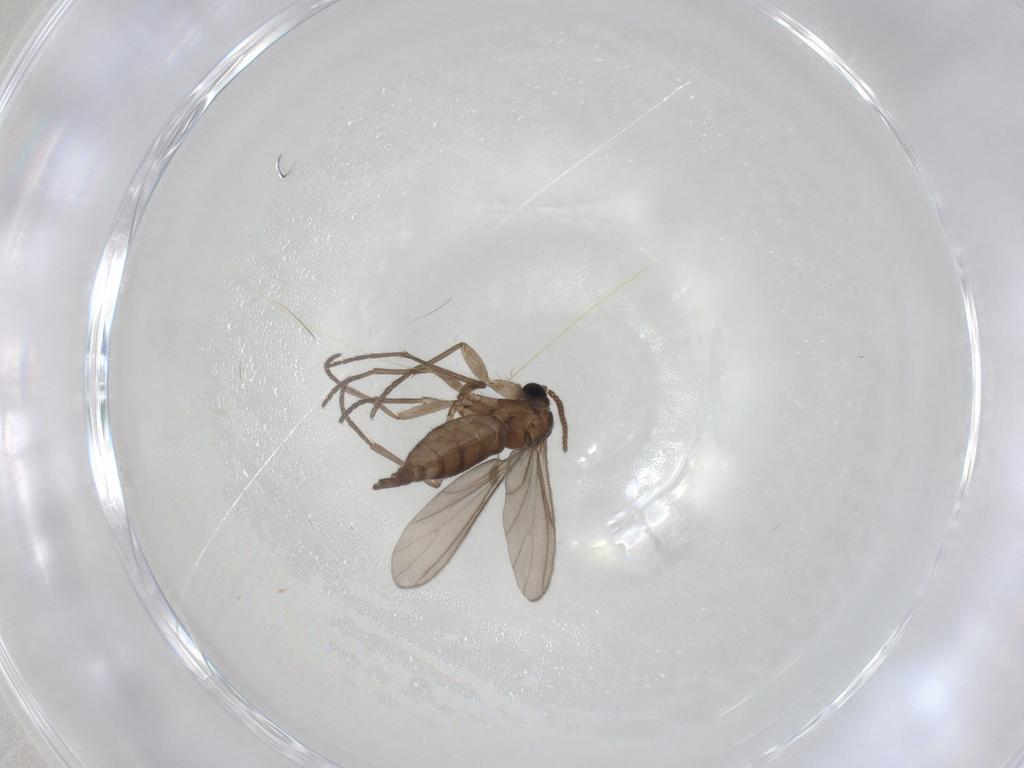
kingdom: Animalia
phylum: Arthropoda
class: Insecta
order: Diptera
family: Sciaridae
